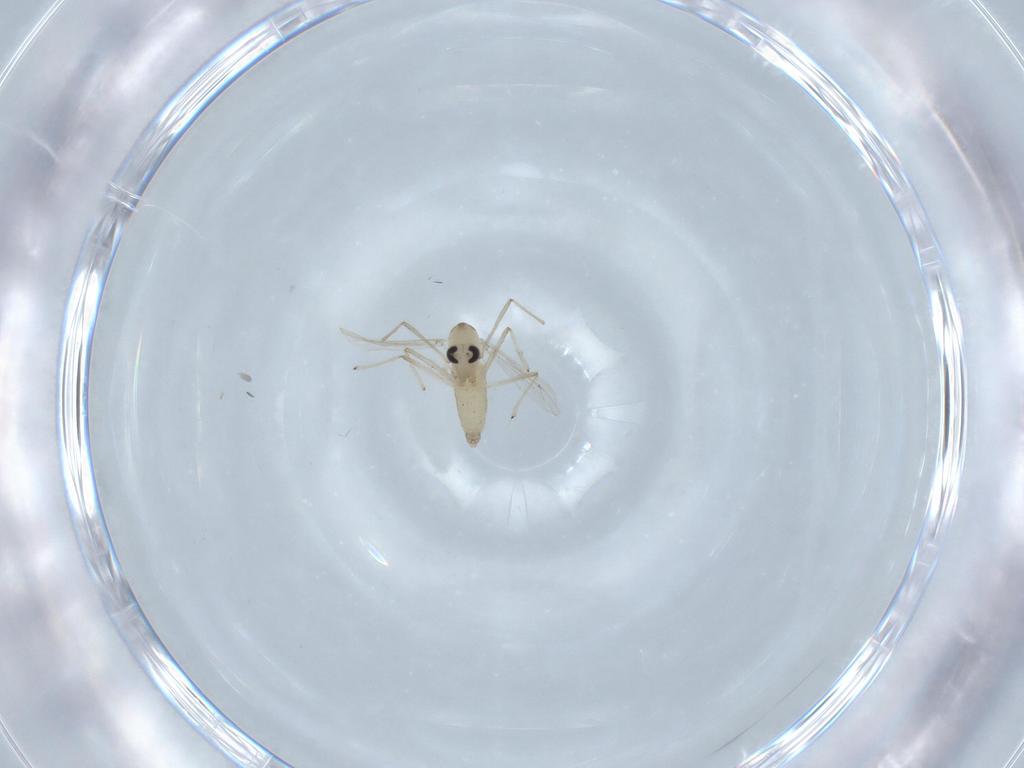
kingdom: Animalia
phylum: Arthropoda
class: Insecta
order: Diptera
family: Chironomidae
